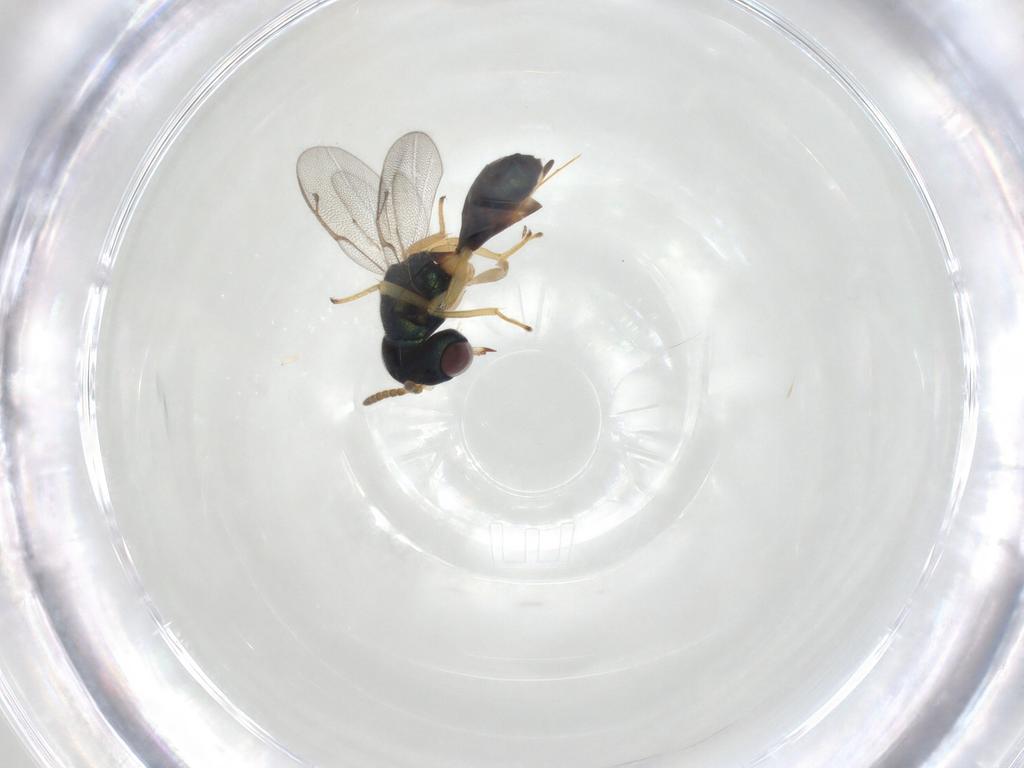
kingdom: Animalia
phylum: Arthropoda
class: Insecta
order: Hymenoptera
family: Pteromalidae
